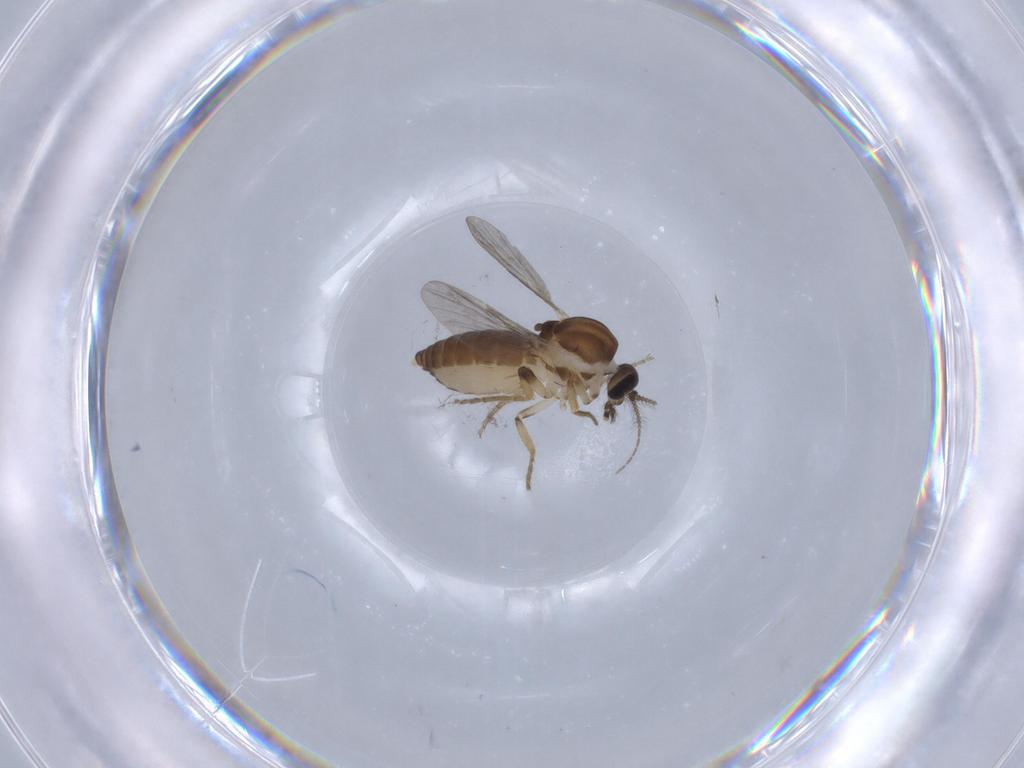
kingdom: Animalia
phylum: Arthropoda
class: Insecta
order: Diptera
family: Ceratopogonidae
